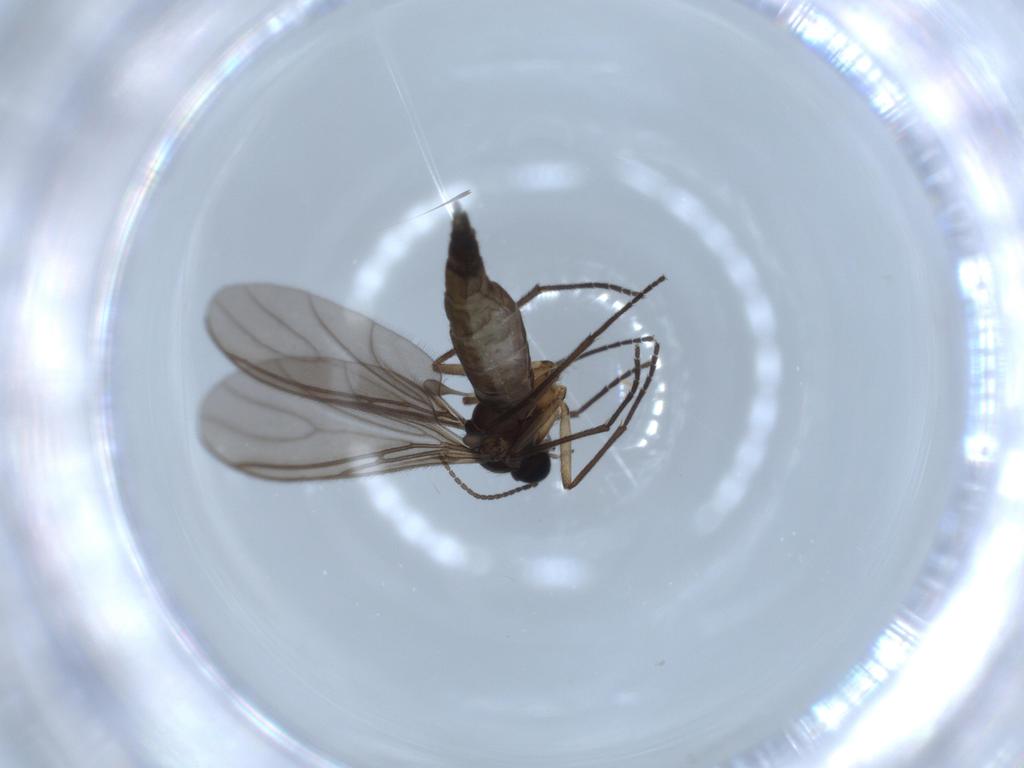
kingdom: Animalia
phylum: Arthropoda
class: Insecta
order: Diptera
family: Sciaridae
